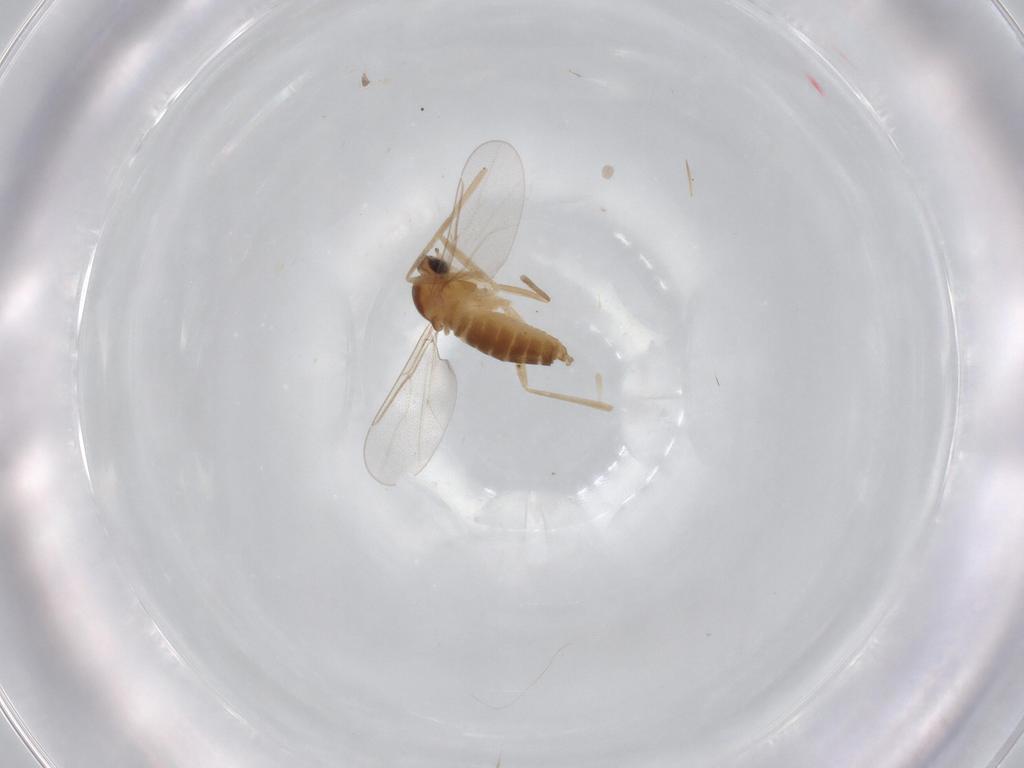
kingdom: Animalia
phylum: Arthropoda
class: Insecta
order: Diptera
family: Cecidomyiidae
